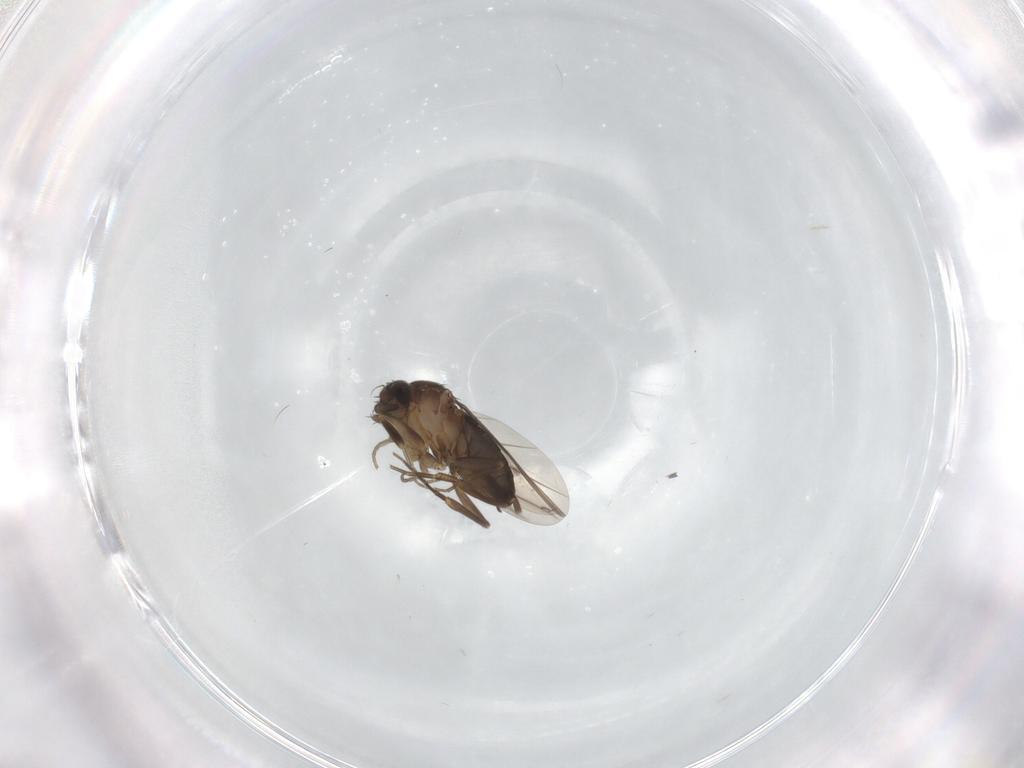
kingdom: Animalia
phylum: Arthropoda
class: Insecta
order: Diptera
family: Phoridae
